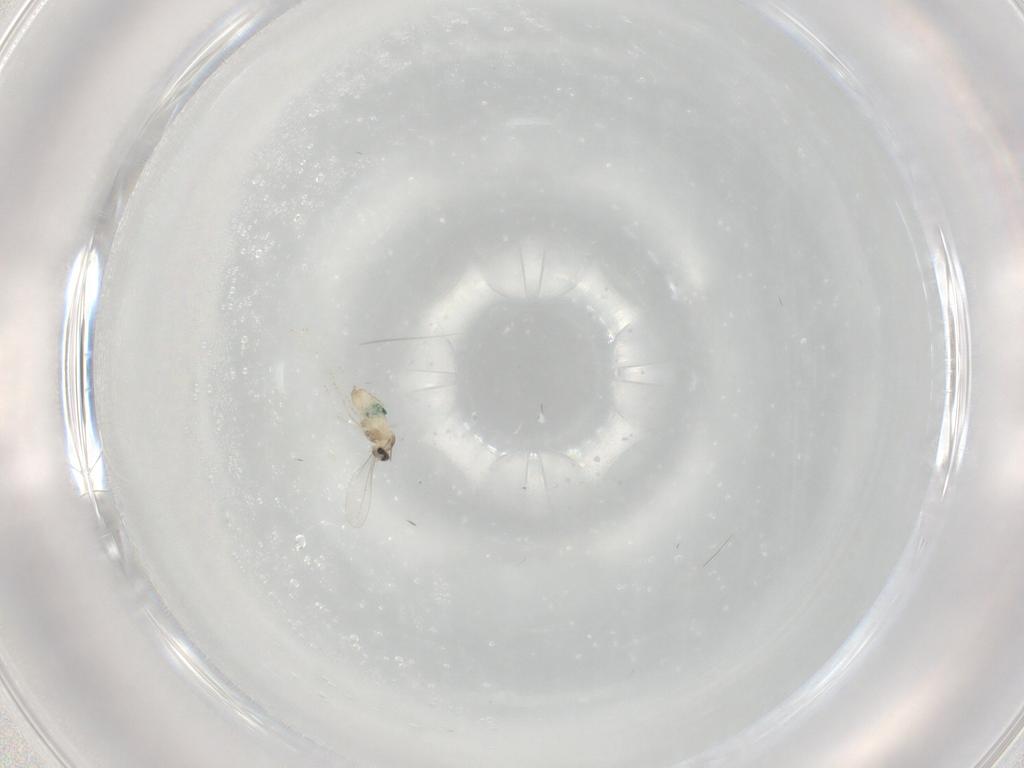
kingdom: Animalia
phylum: Arthropoda
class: Insecta
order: Diptera
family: Cecidomyiidae
